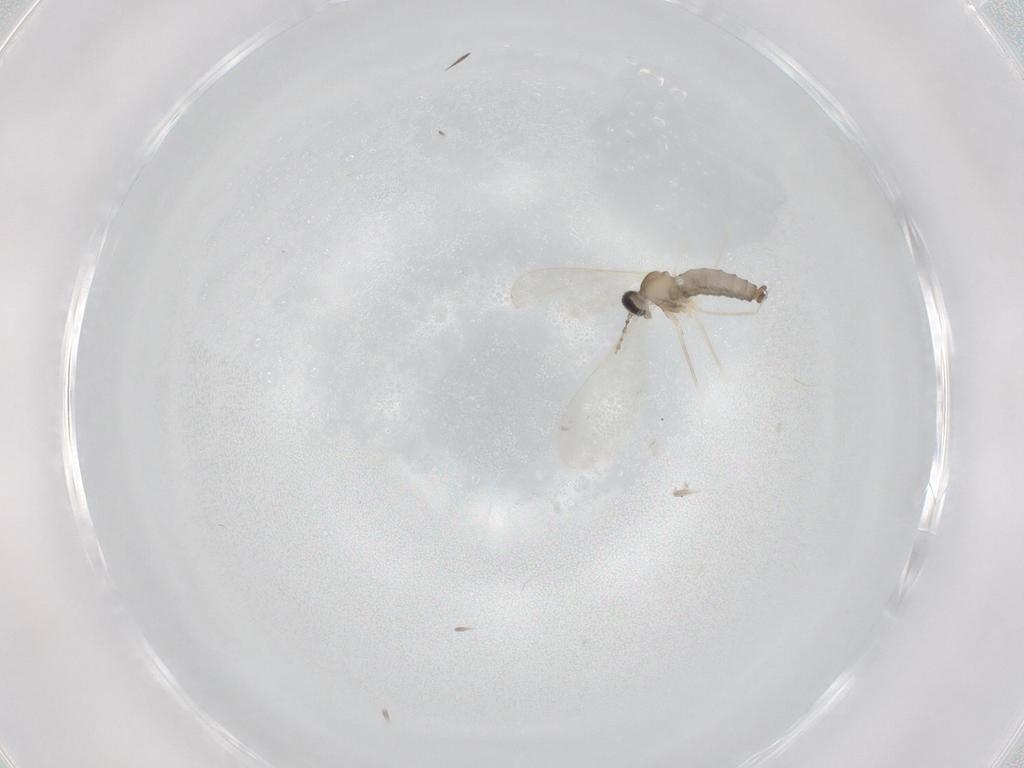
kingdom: Animalia
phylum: Arthropoda
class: Insecta
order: Diptera
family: Cecidomyiidae
